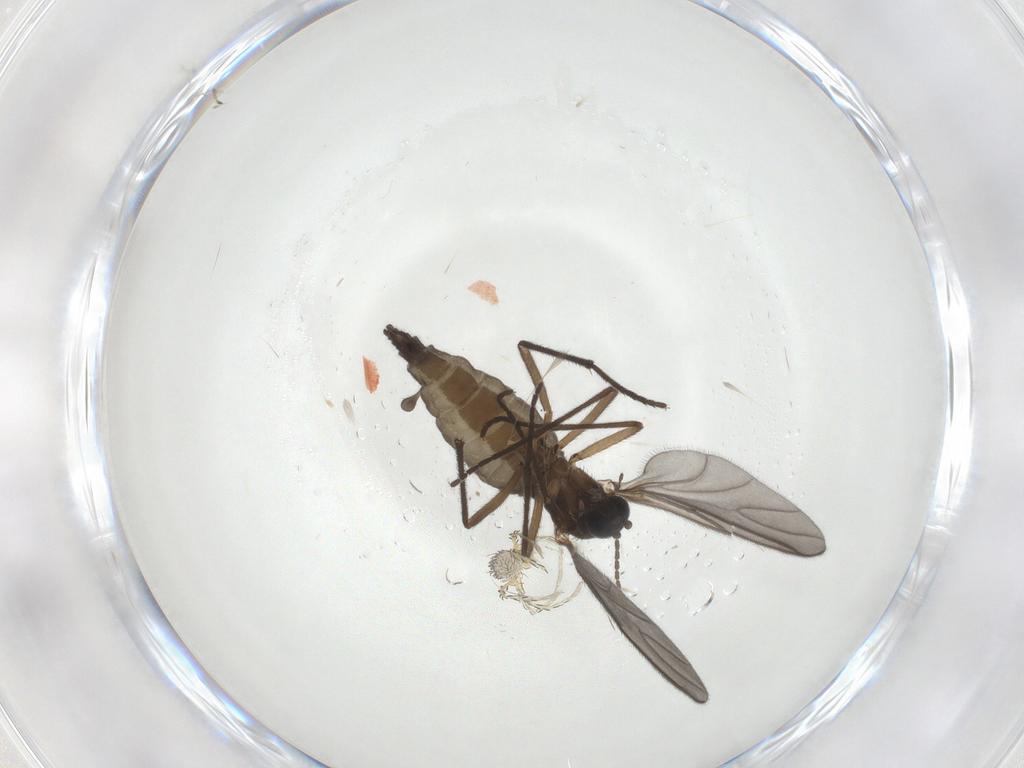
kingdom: Animalia
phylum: Arthropoda
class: Insecta
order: Diptera
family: Sciaridae
